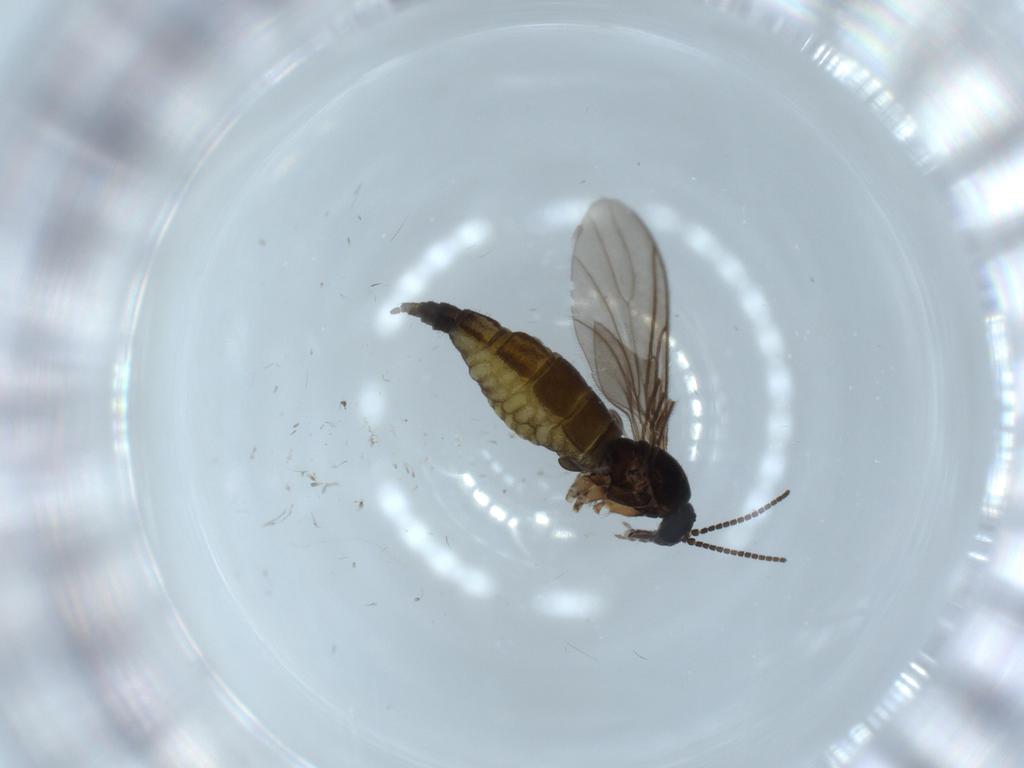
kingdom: Animalia
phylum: Arthropoda
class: Insecta
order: Diptera
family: Sciaridae
